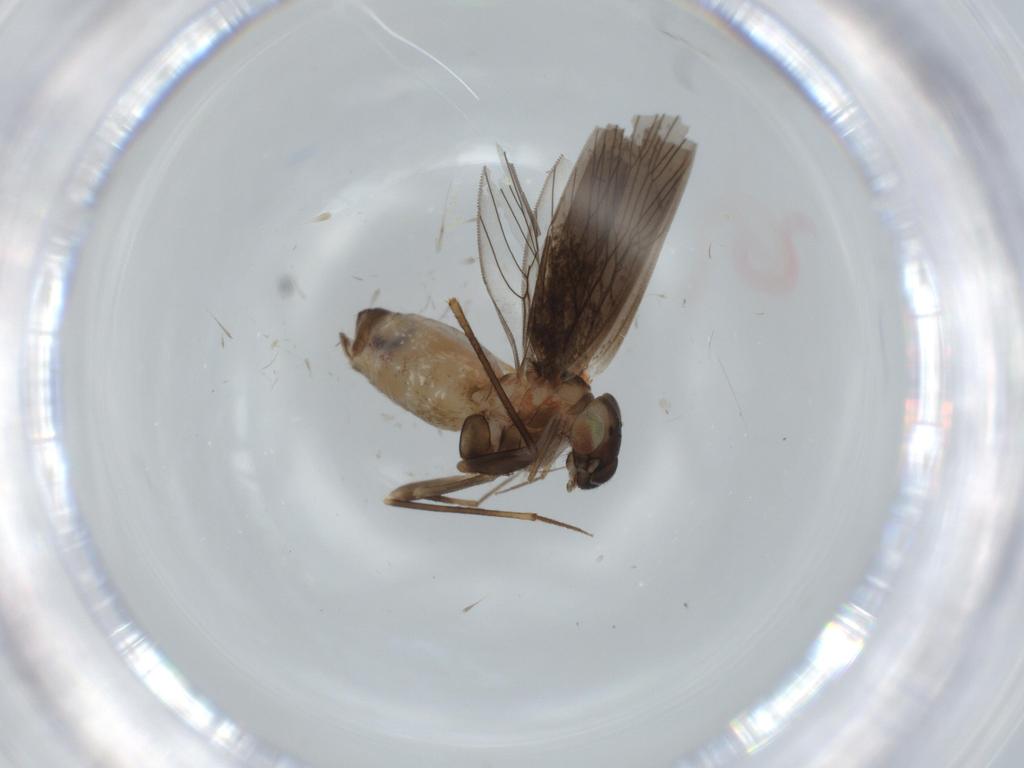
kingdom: Animalia
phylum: Arthropoda
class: Insecta
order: Psocodea
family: Lepidopsocidae
